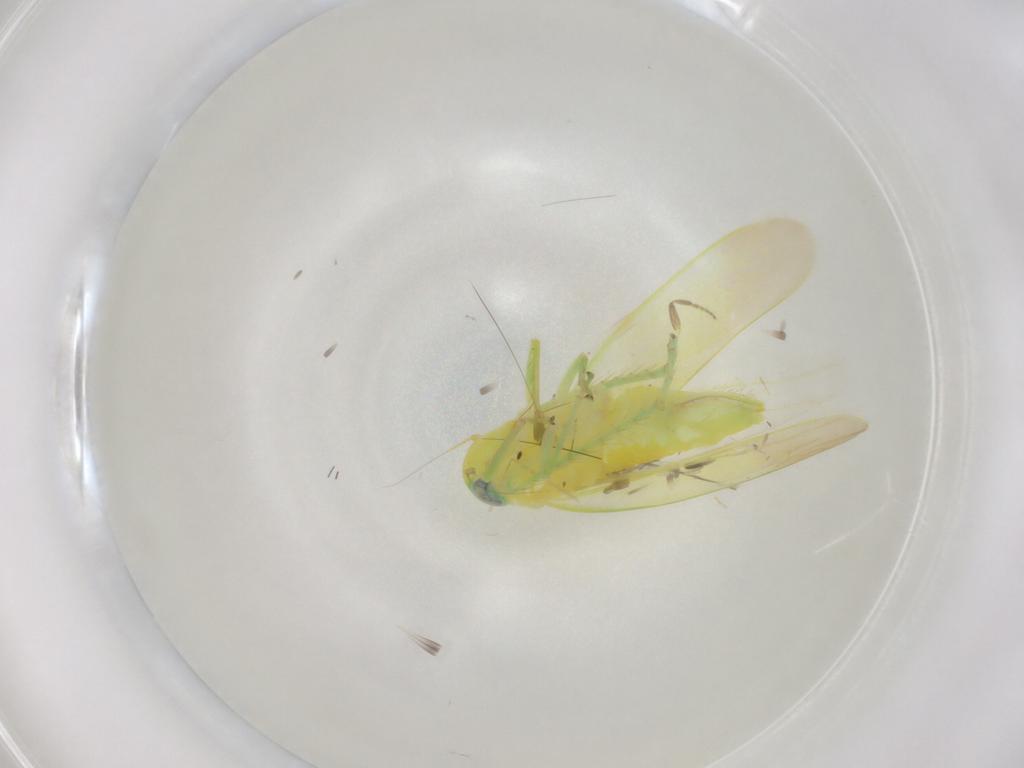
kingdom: Animalia
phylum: Arthropoda
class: Insecta
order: Hemiptera
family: Cicadellidae
